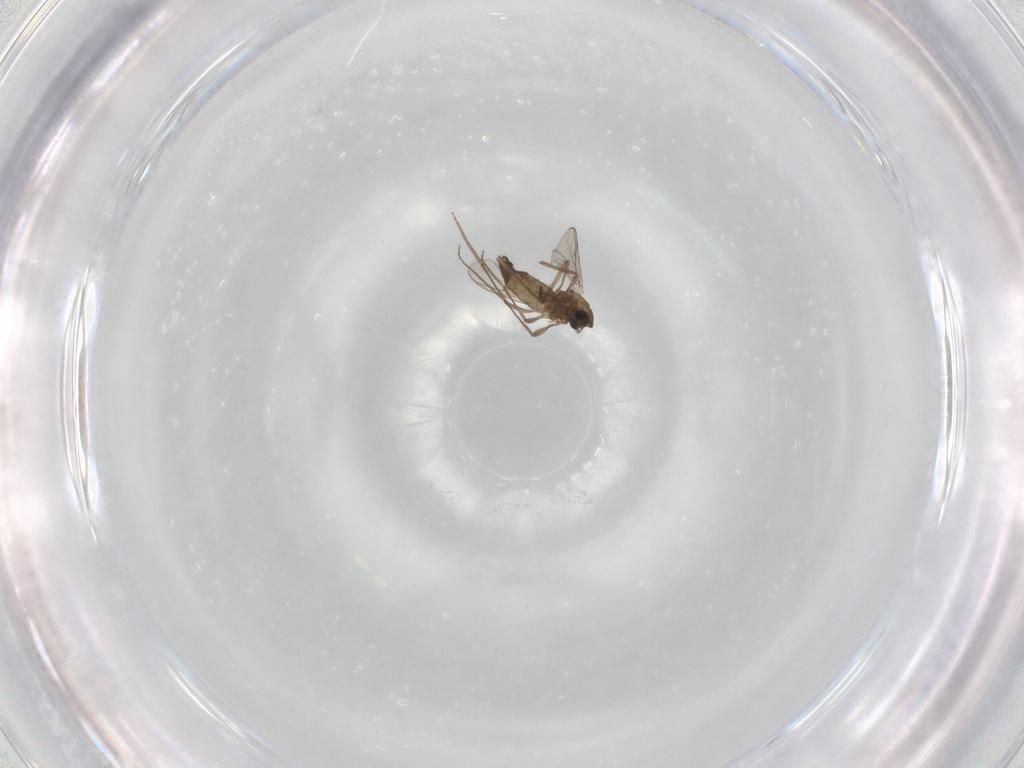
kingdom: Animalia
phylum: Arthropoda
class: Insecta
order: Diptera
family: Chironomidae
